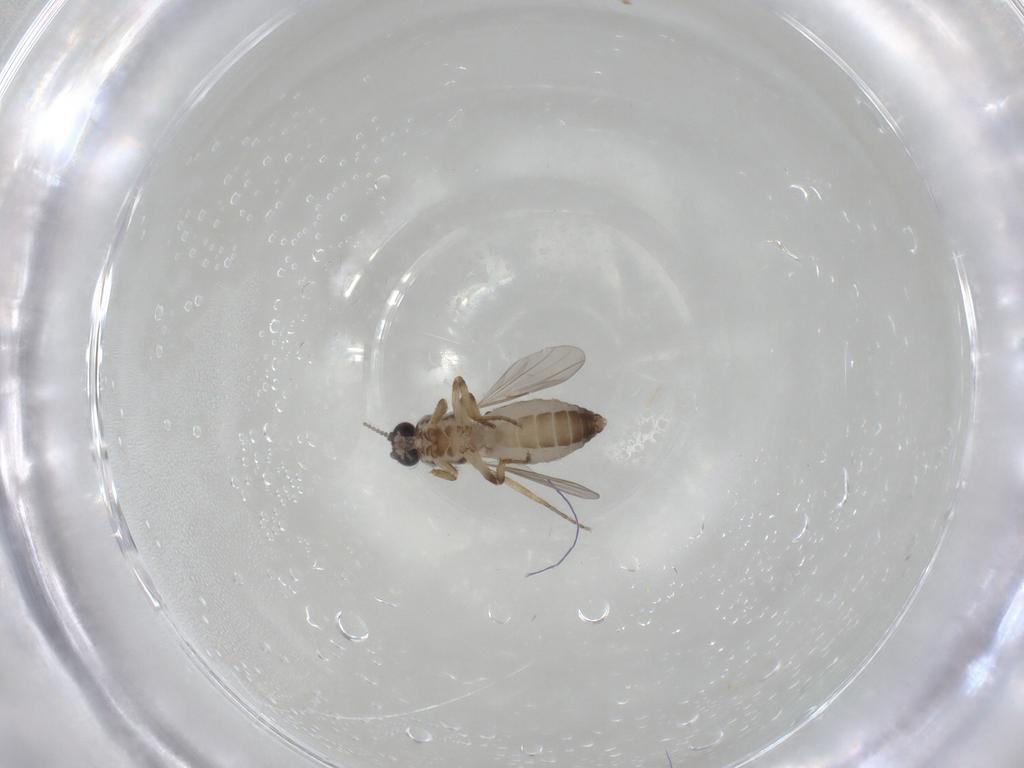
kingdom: Animalia
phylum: Arthropoda
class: Insecta
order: Diptera
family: Ceratopogonidae
